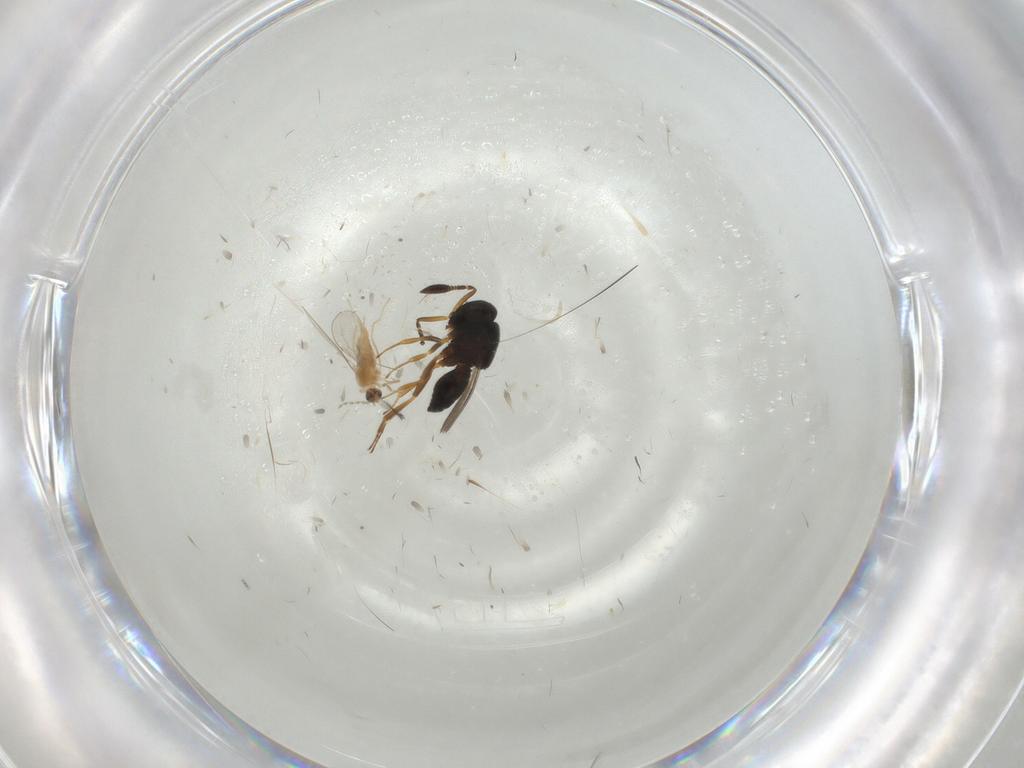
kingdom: Animalia
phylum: Arthropoda
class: Insecta
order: Hymenoptera
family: Scelionidae
